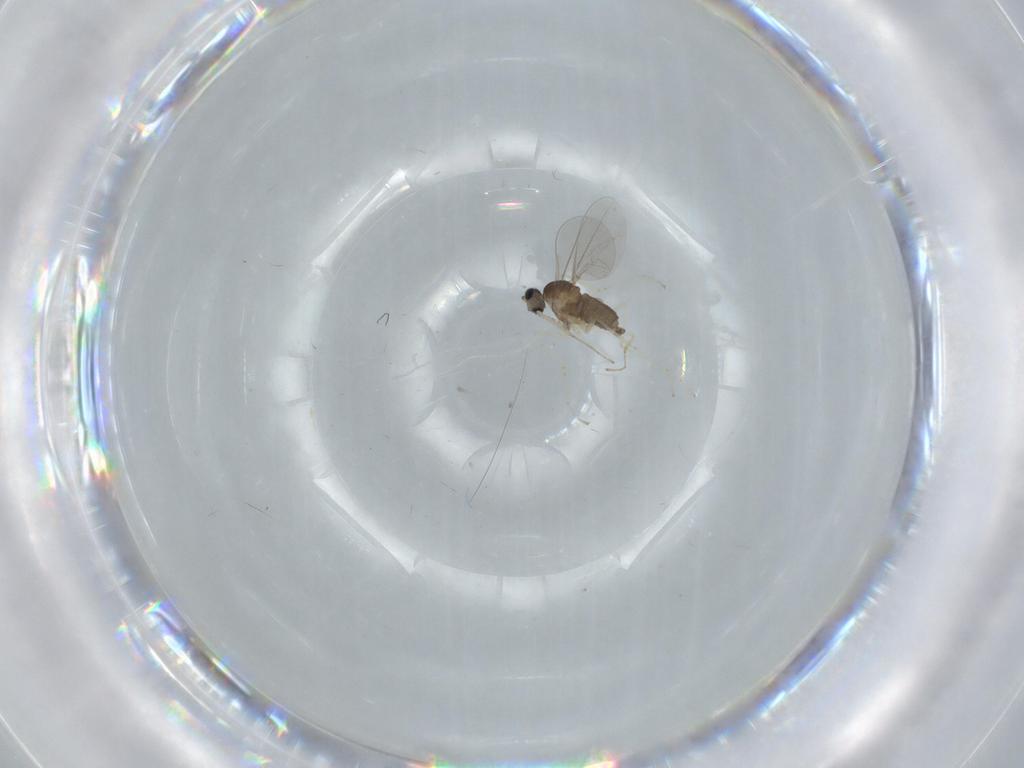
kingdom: Animalia
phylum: Arthropoda
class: Insecta
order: Diptera
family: Cecidomyiidae
